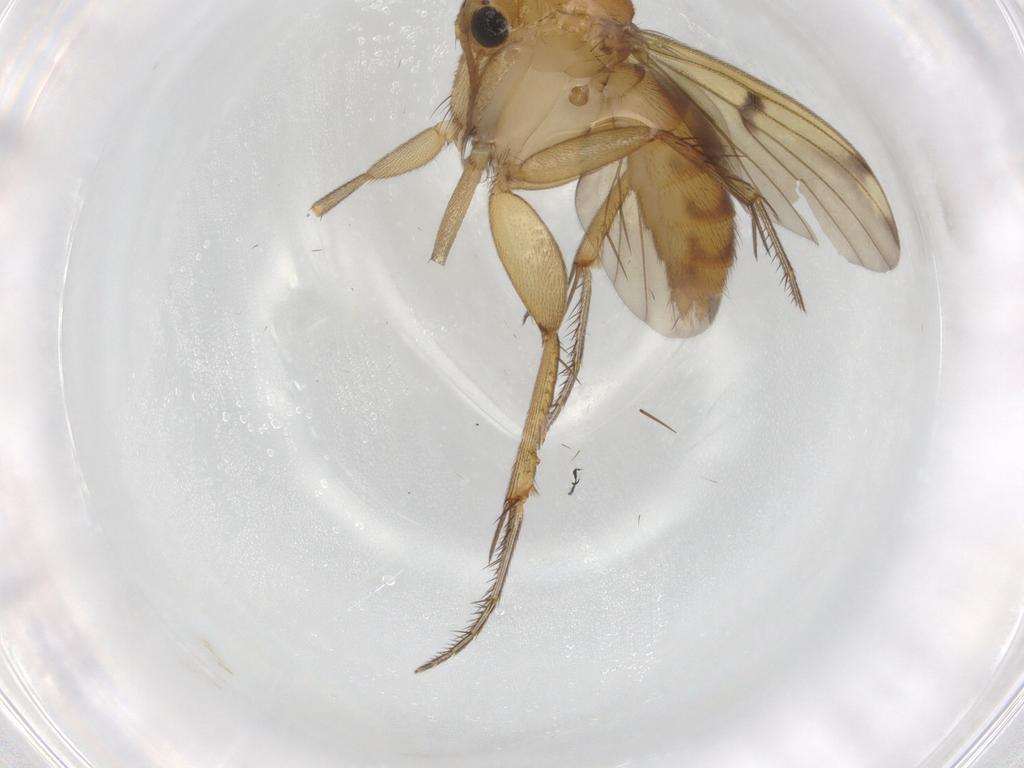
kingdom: Animalia
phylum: Arthropoda
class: Insecta
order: Diptera
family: Mycetophilidae
